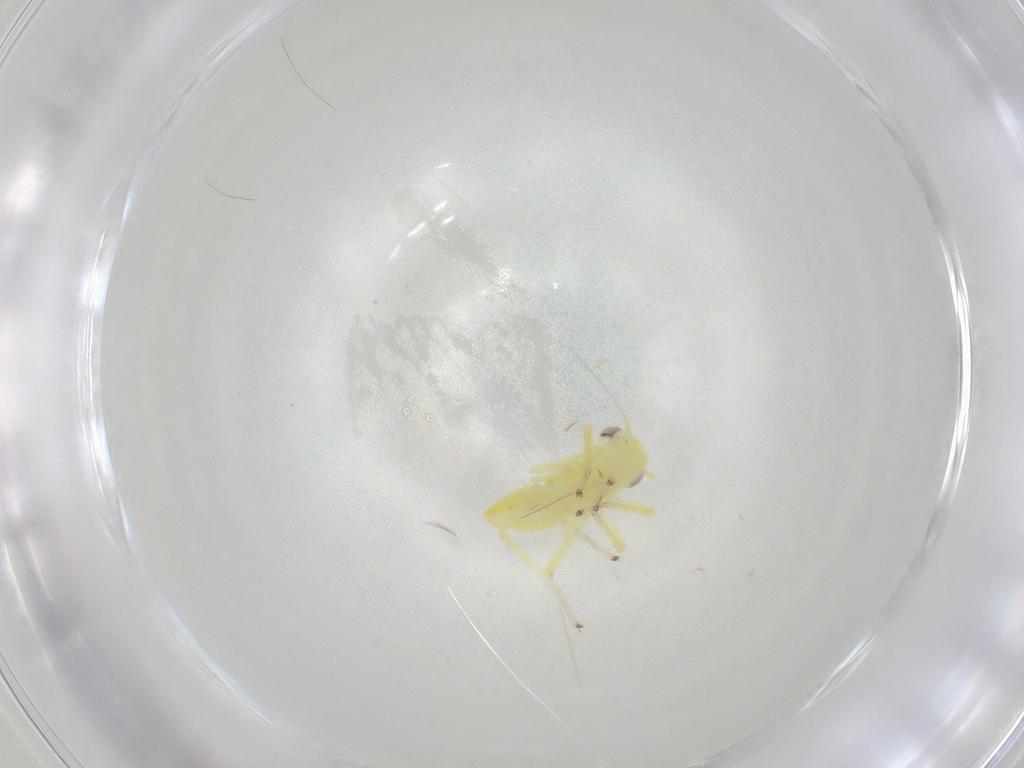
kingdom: Animalia
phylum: Arthropoda
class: Insecta
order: Hemiptera
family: Cicadellidae
